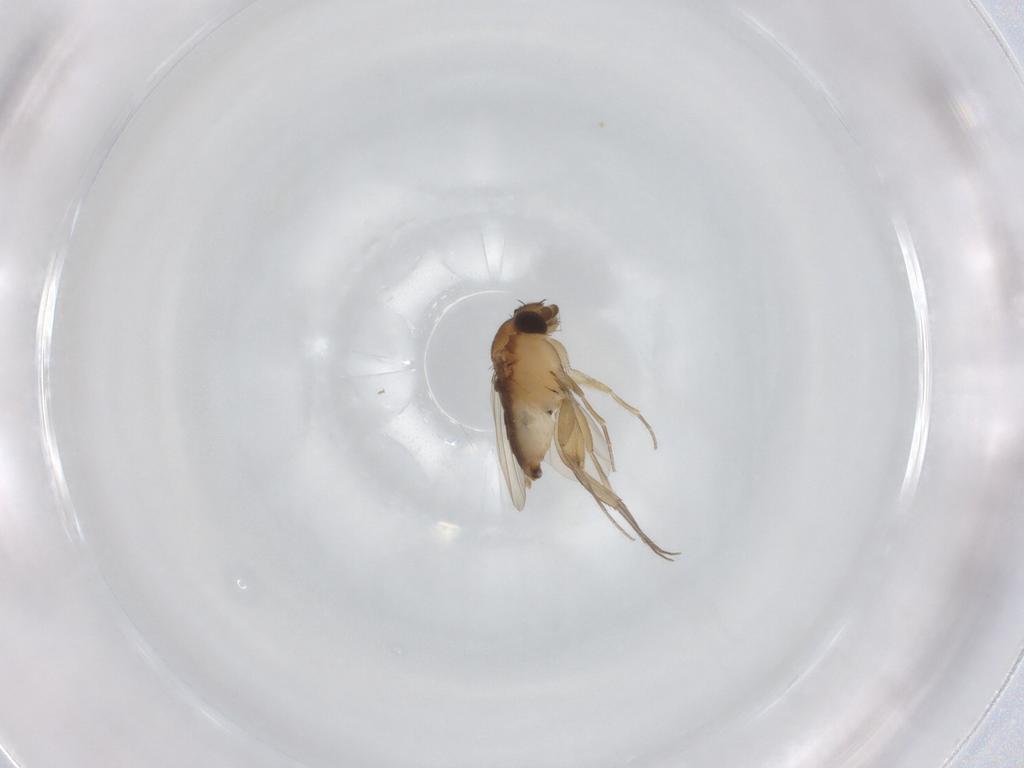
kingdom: Animalia
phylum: Arthropoda
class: Insecta
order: Diptera
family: Phoridae
